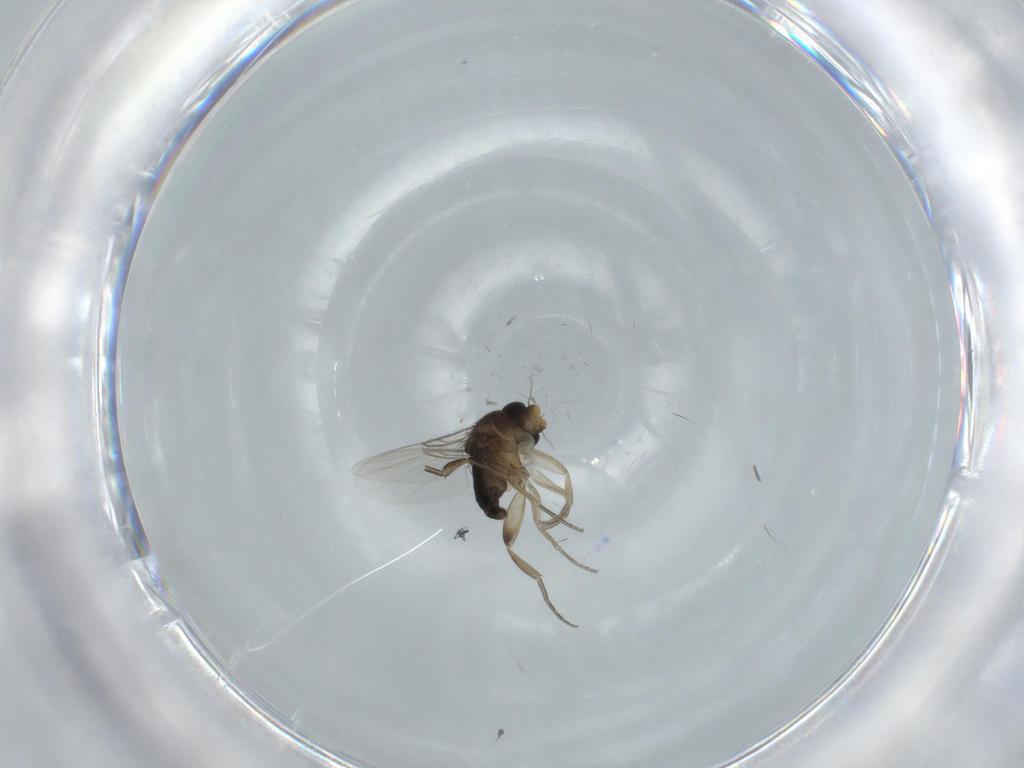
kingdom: Animalia
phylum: Arthropoda
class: Insecta
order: Diptera
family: Phoridae
